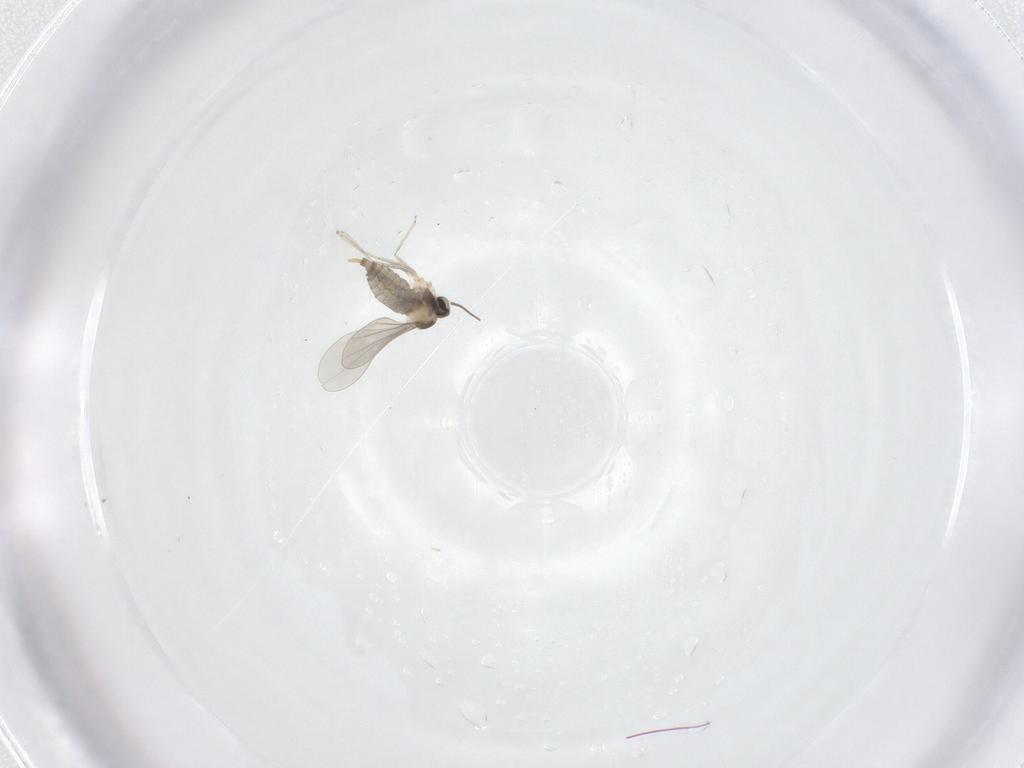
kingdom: Animalia
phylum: Arthropoda
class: Insecta
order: Diptera
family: Cecidomyiidae
